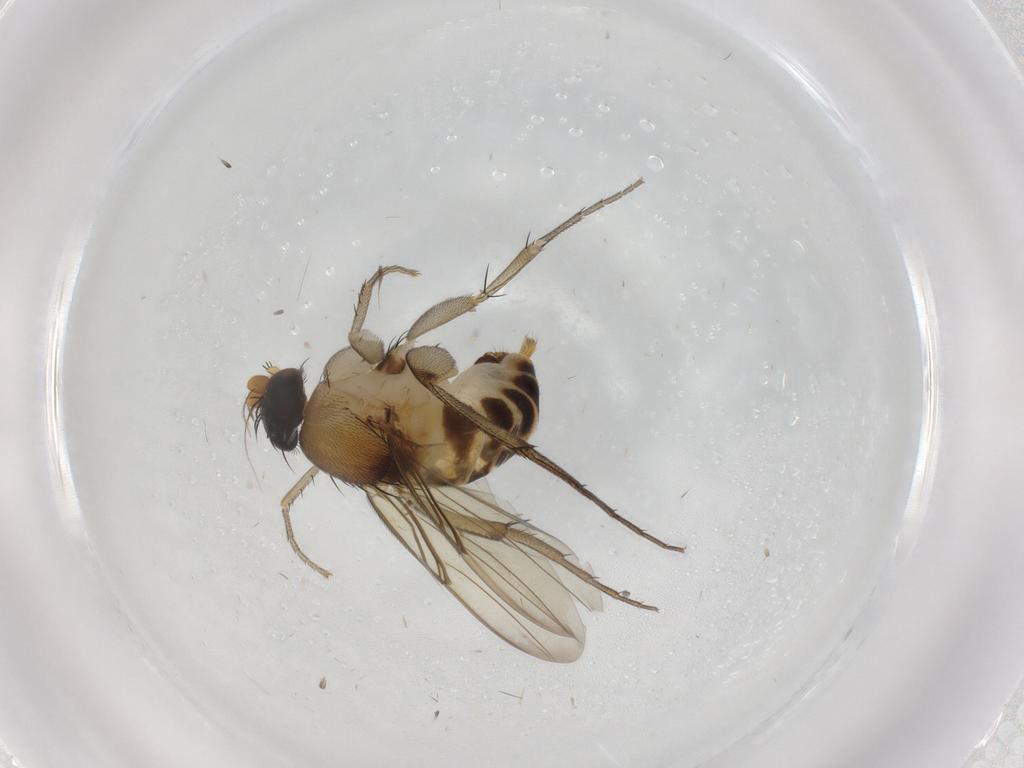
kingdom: Animalia
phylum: Arthropoda
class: Insecta
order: Diptera
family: Phoridae
